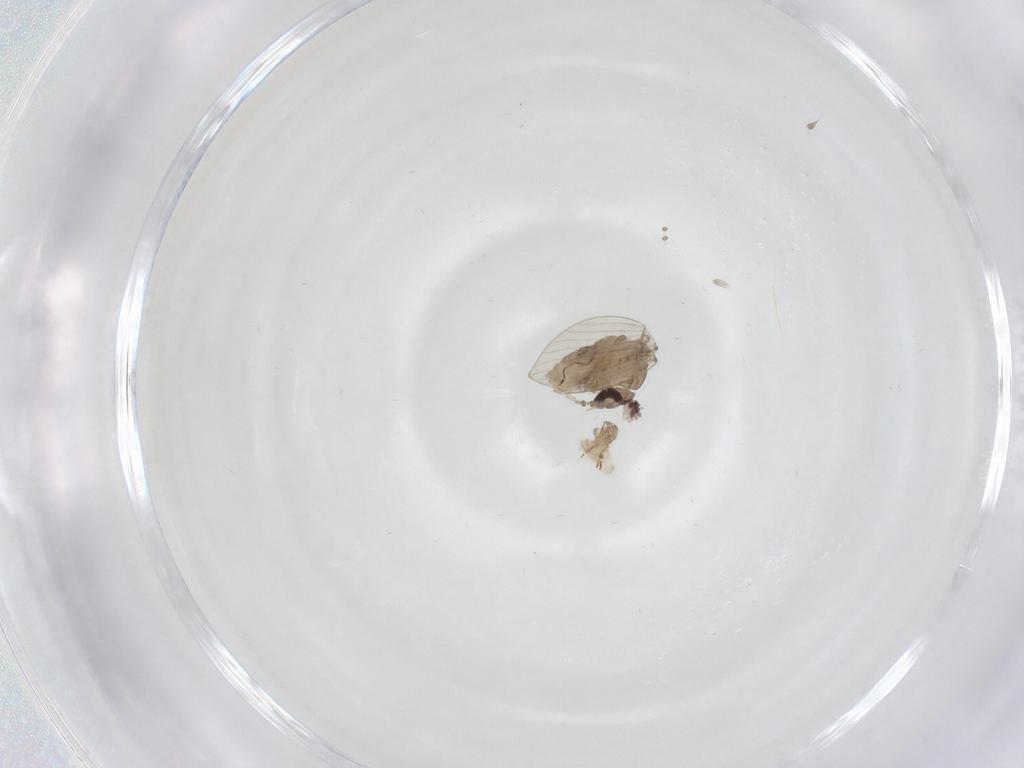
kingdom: Animalia
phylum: Arthropoda
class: Insecta
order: Diptera
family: Psychodidae
